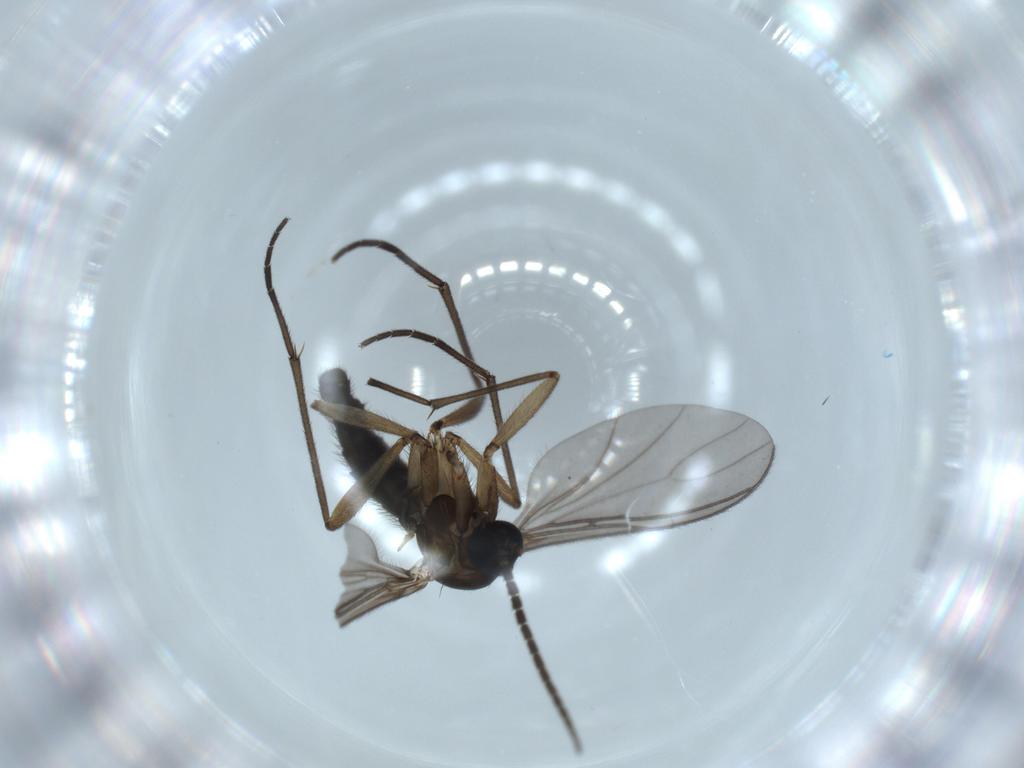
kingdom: Animalia
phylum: Arthropoda
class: Insecta
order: Diptera
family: Sciaridae
